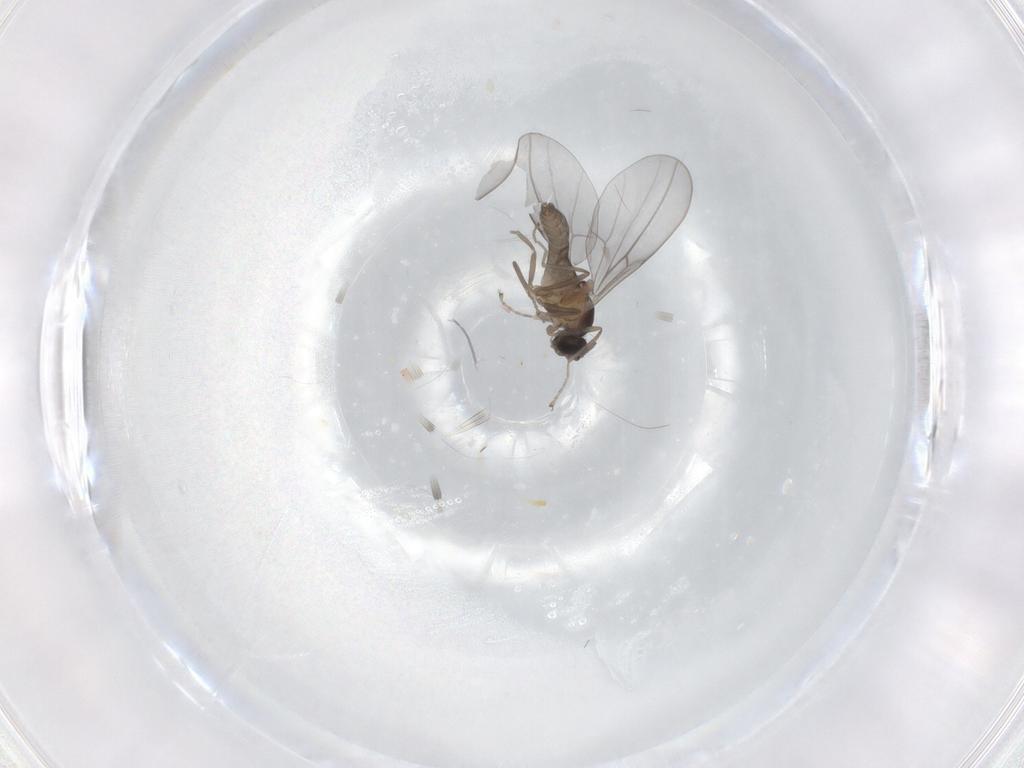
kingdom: Animalia
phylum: Arthropoda
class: Insecta
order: Diptera
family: Cecidomyiidae
